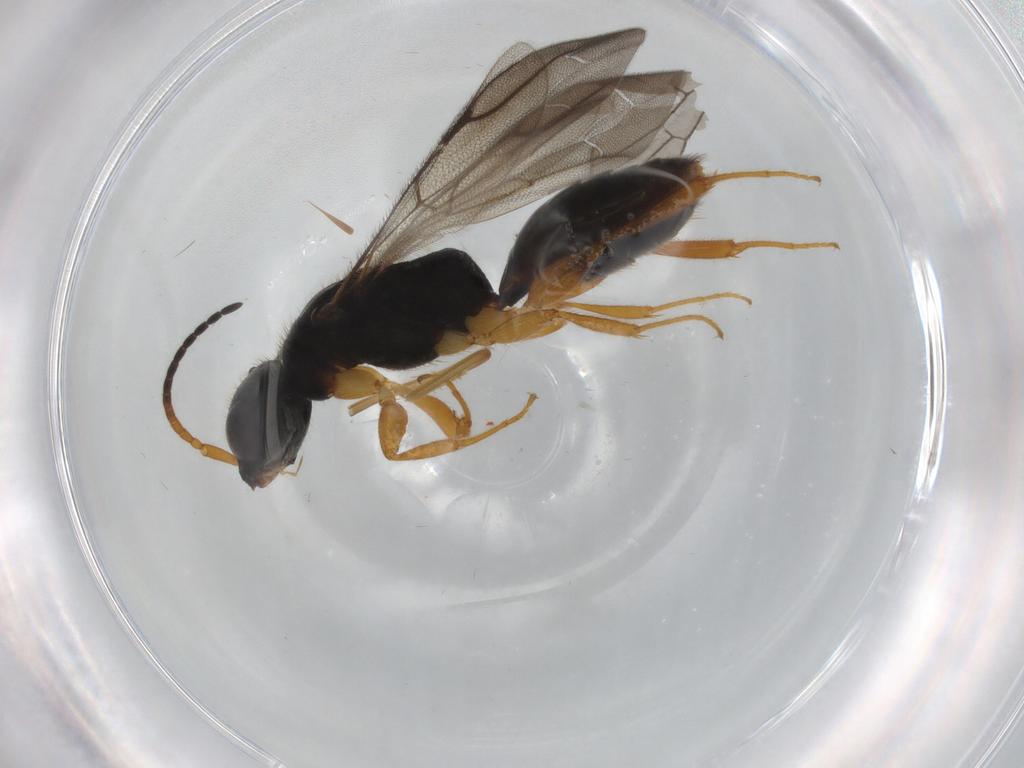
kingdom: Animalia
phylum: Arthropoda
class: Insecta
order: Hymenoptera
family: Bethylidae
